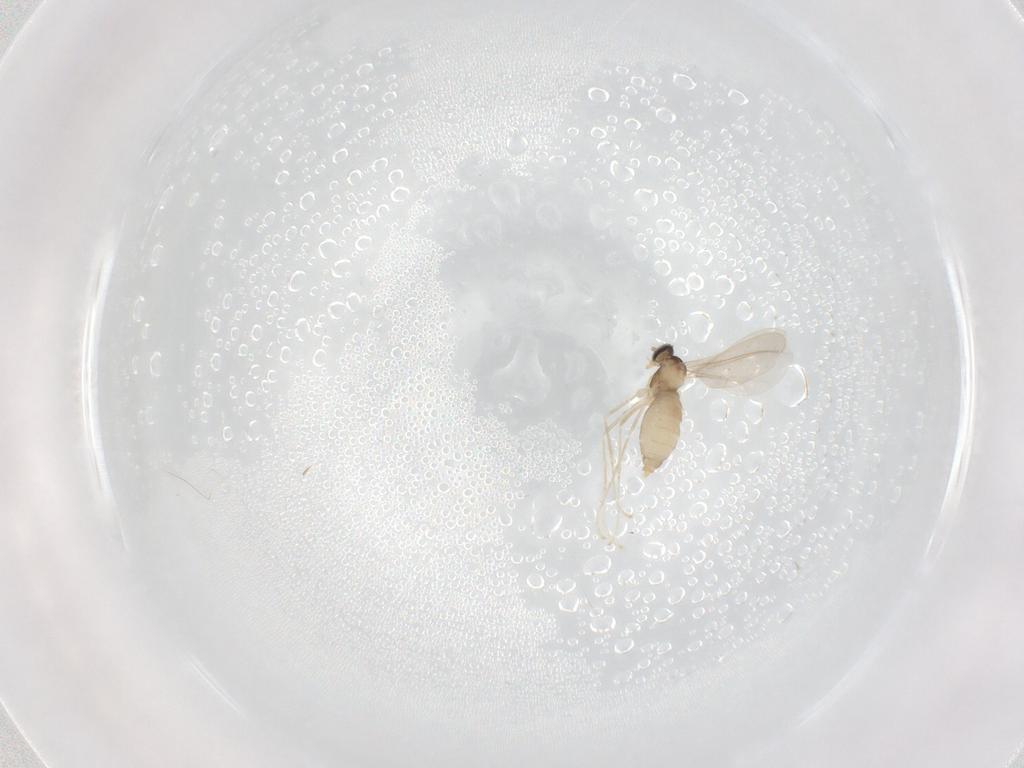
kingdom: Animalia
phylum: Arthropoda
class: Insecta
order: Diptera
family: Cecidomyiidae
